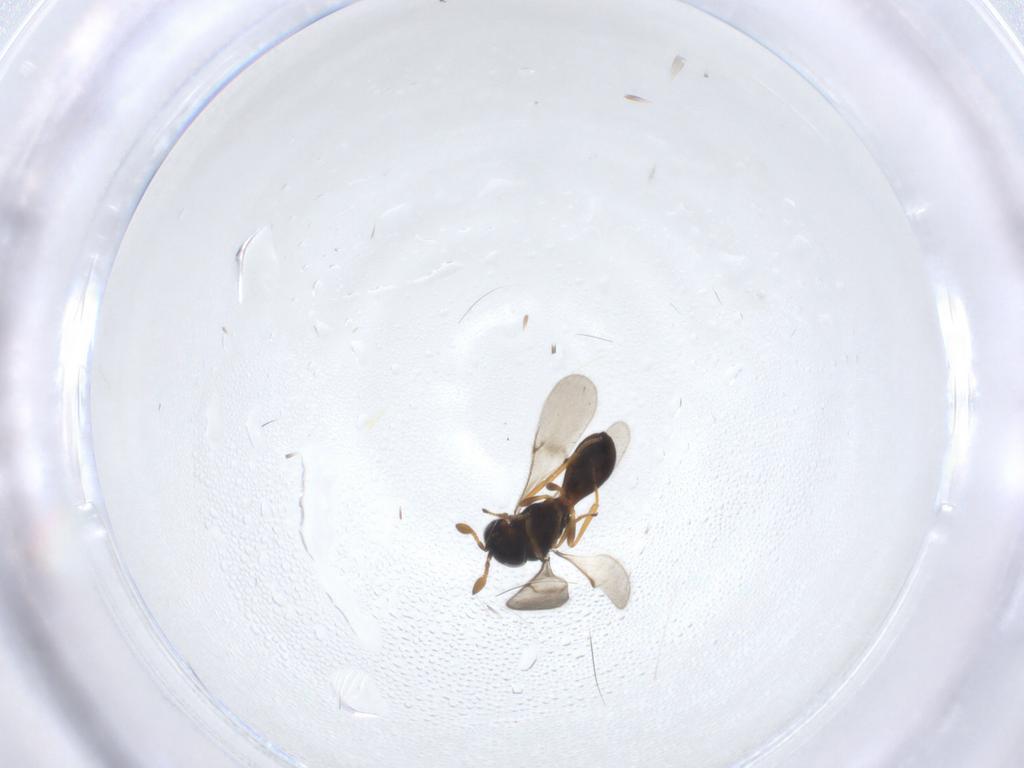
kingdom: Animalia
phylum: Arthropoda
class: Insecta
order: Hymenoptera
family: Scelionidae
